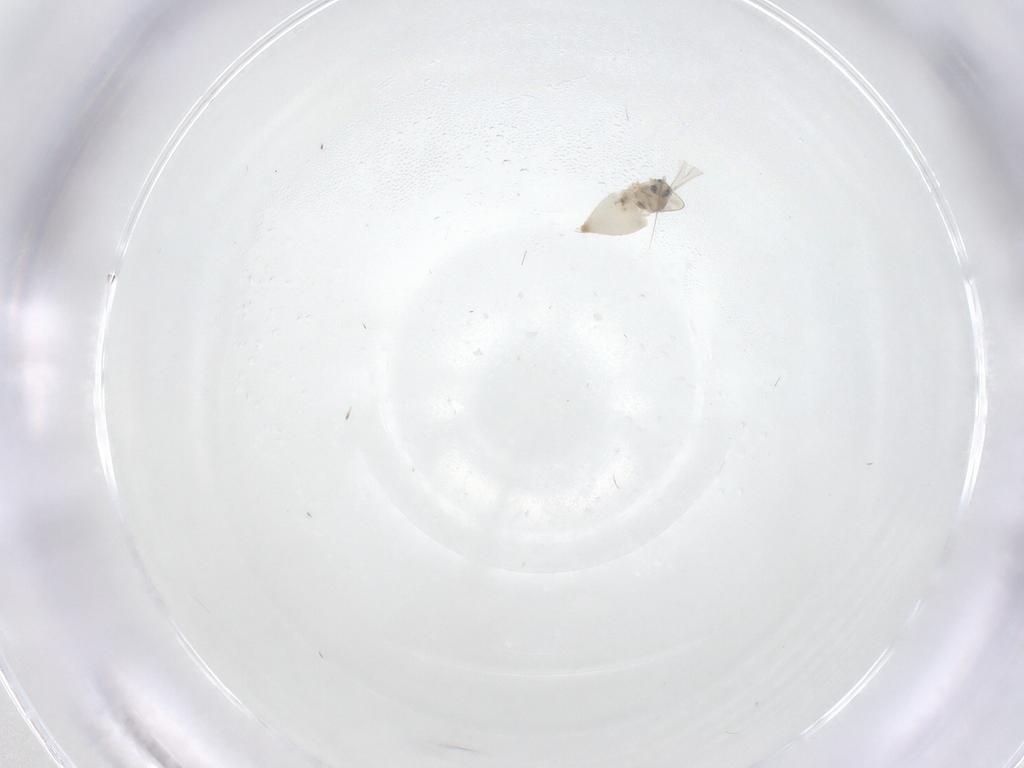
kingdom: Animalia
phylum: Arthropoda
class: Insecta
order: Diptera
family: Cecidomyiidae
